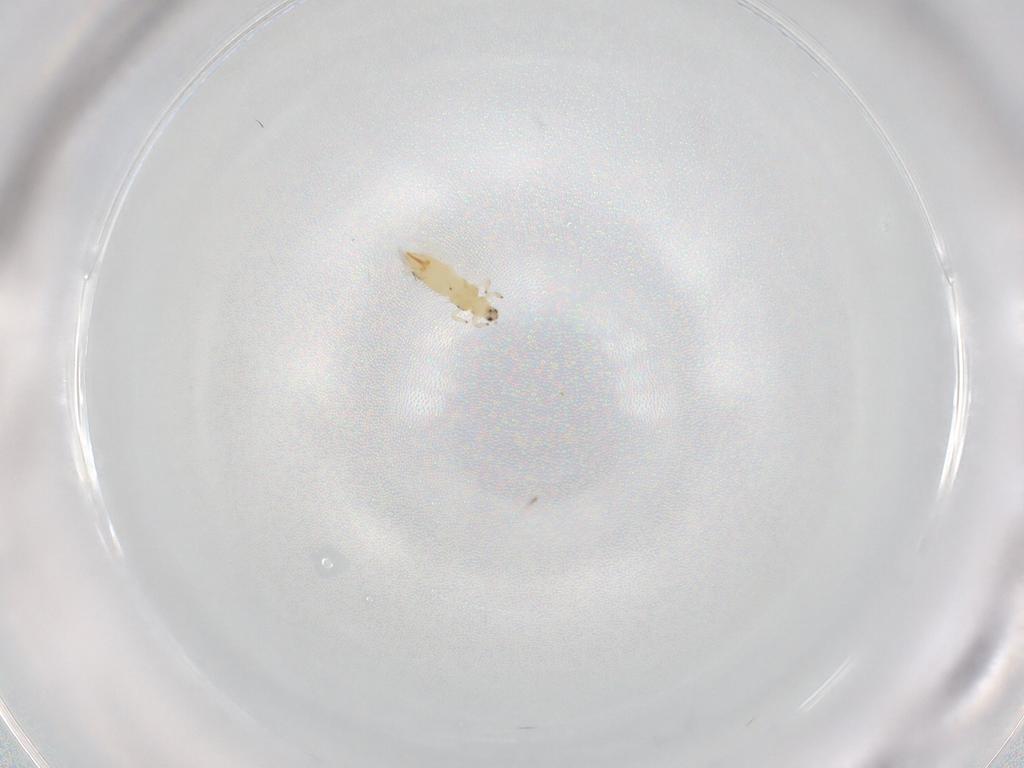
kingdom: Animalia
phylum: Arthropoda
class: Insecta
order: Thysanoptera
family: Thripidae
